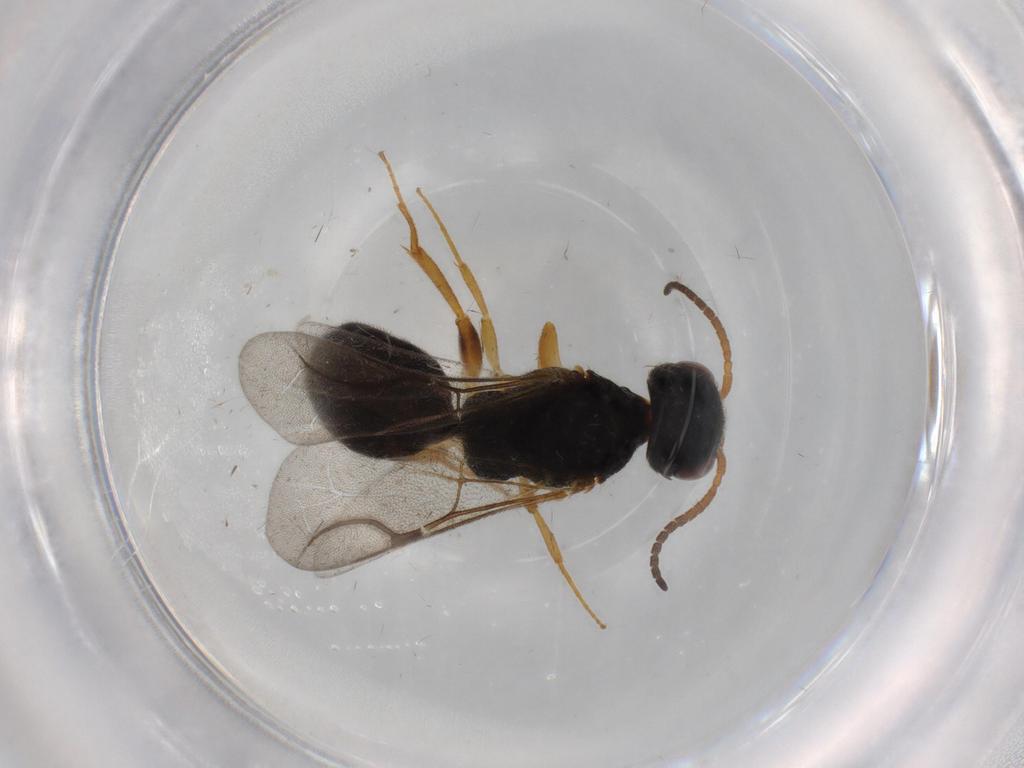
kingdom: Animalia
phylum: Arthropoda
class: Insecta
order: Hymenoptera
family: Bethylidae
